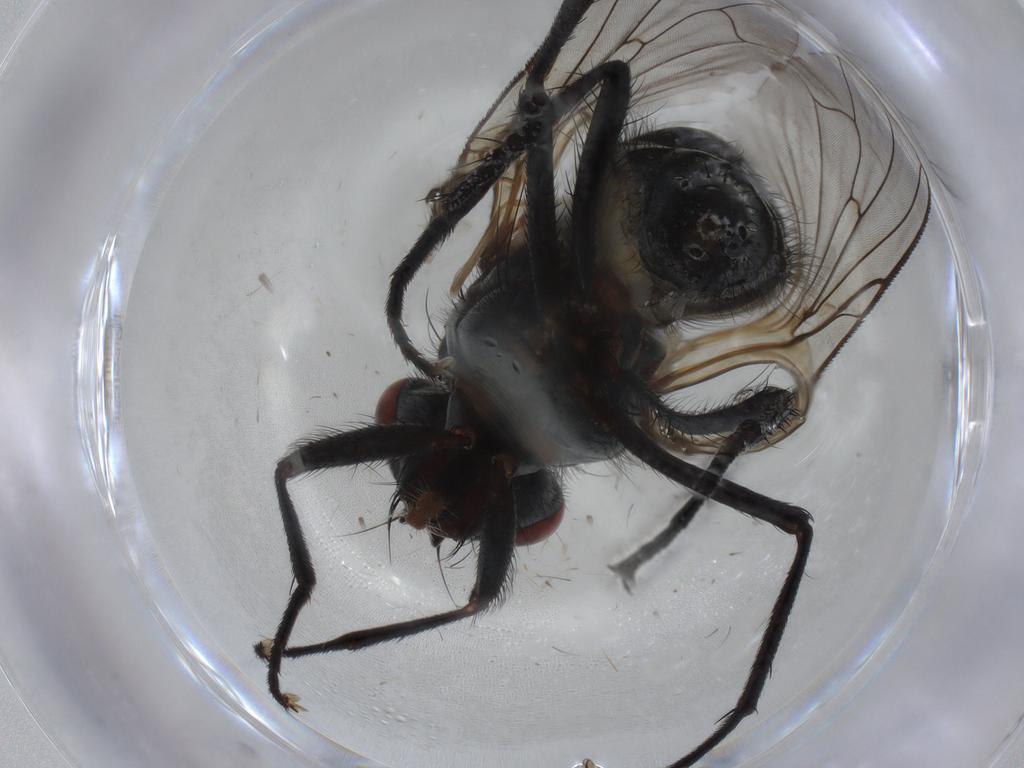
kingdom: Animalia
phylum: Arthropoda
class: Insecta
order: Diptera
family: Anthomyiidae
